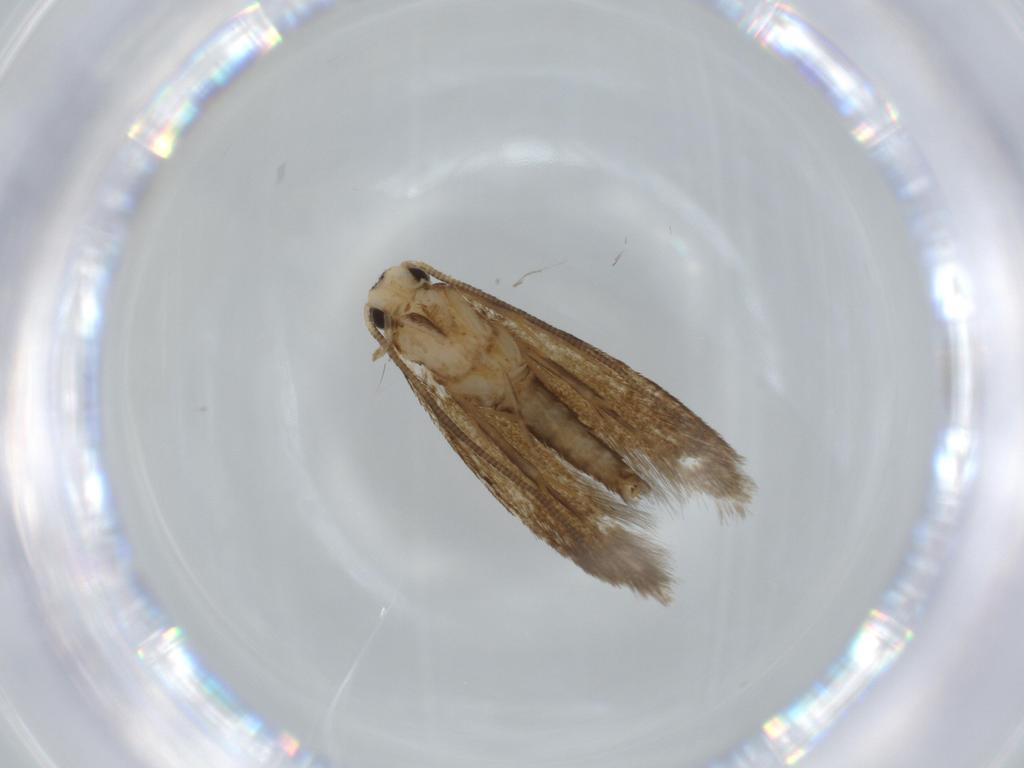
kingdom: Animalia
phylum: Arthropoda
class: Insecta
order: Lepidoptera
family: Tineidae
